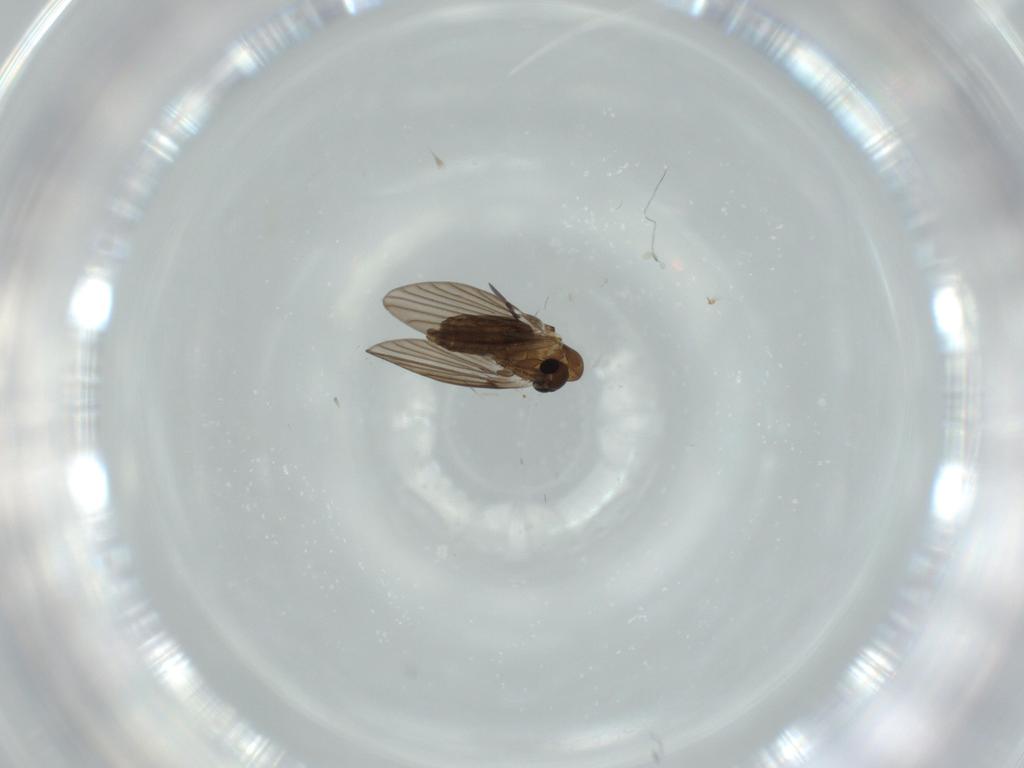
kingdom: Animalia
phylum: Arthropoda
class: Insecta
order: Diptera
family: Psychodidae
